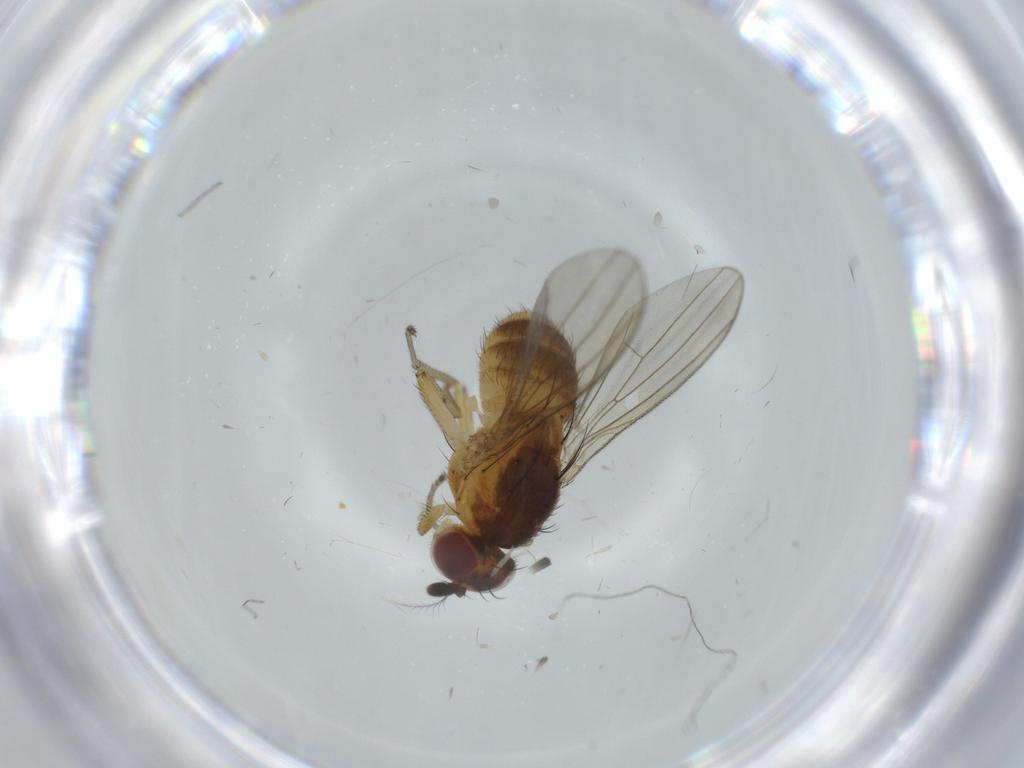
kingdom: Animalia
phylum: Arthropoda
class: Insecta
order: Diptera
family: Lauxaniidae
